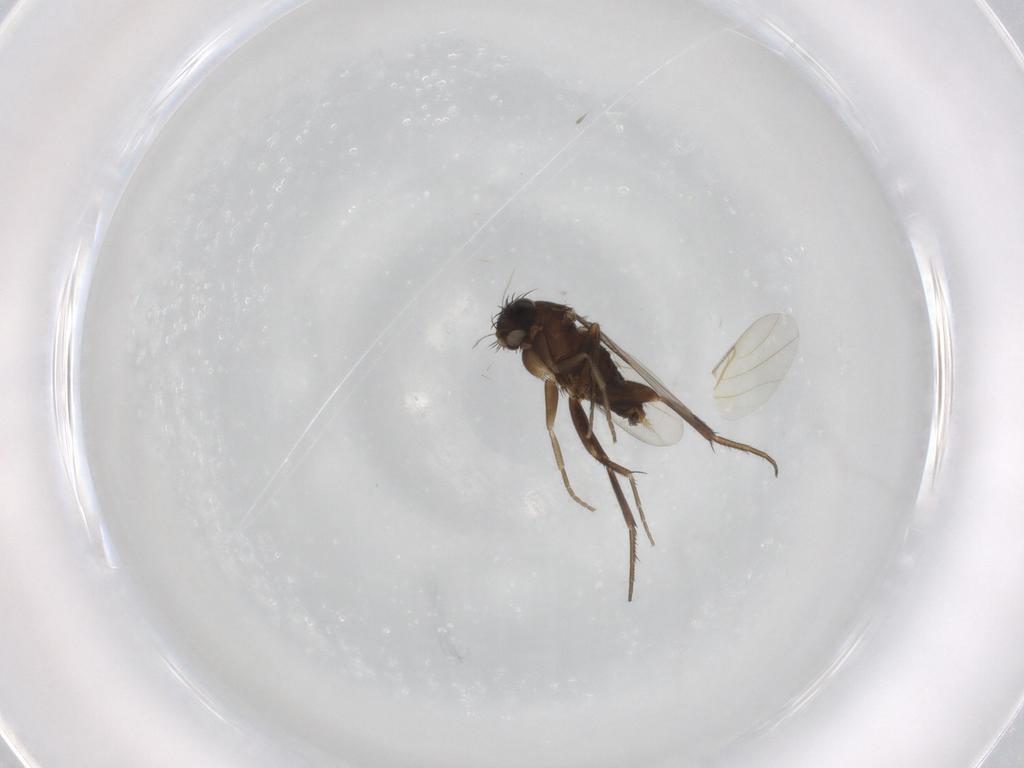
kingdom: Animalia
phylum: Arthropoda
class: Insecta
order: Diptera
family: Phoridae
